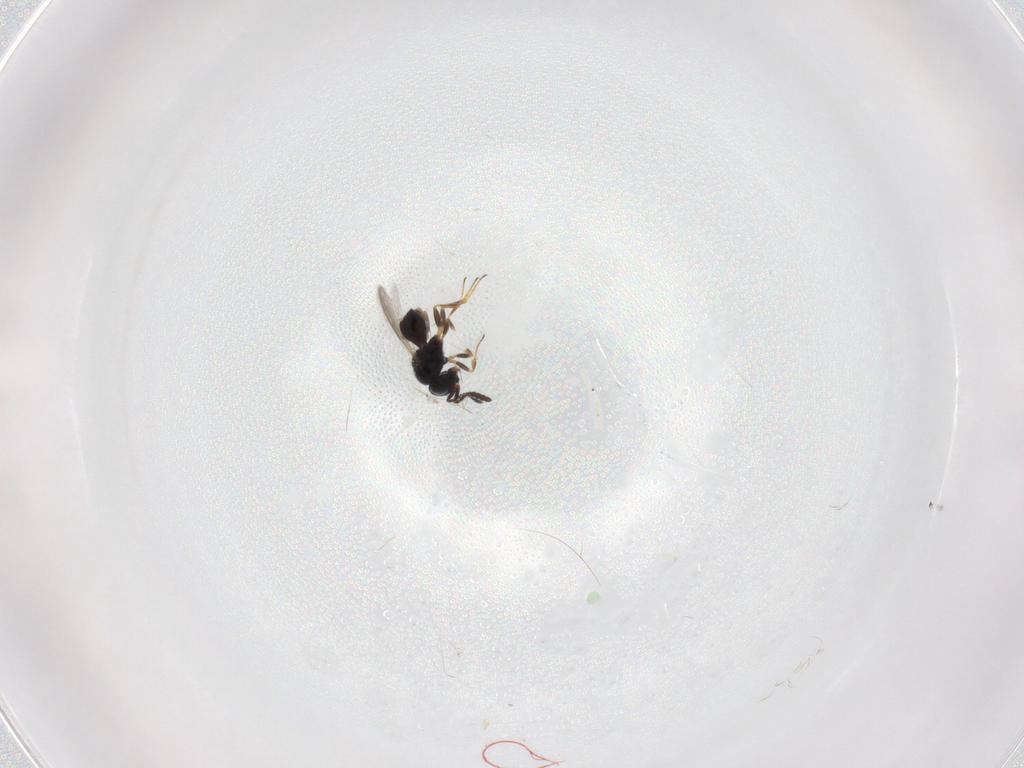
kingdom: Animalia
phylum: Arthropoda
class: Insecta
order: Hymenoptera
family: Scelionidae
